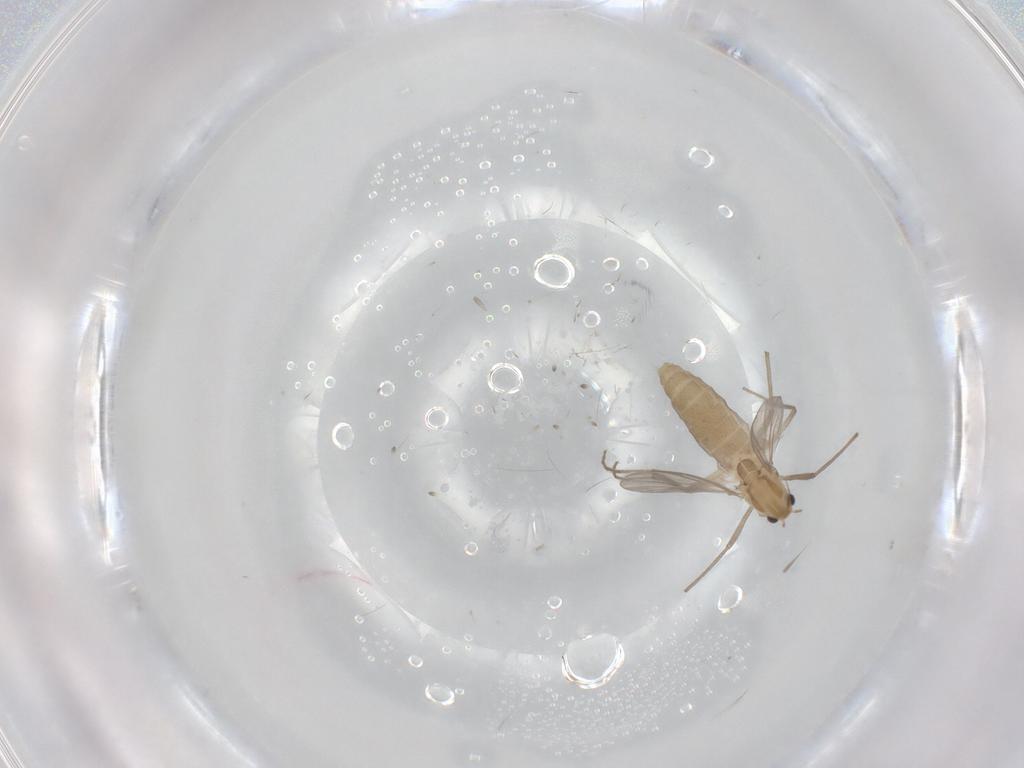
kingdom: Animalia
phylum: Arthropoda
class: Insecta
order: Diptera
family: Chironomidae
